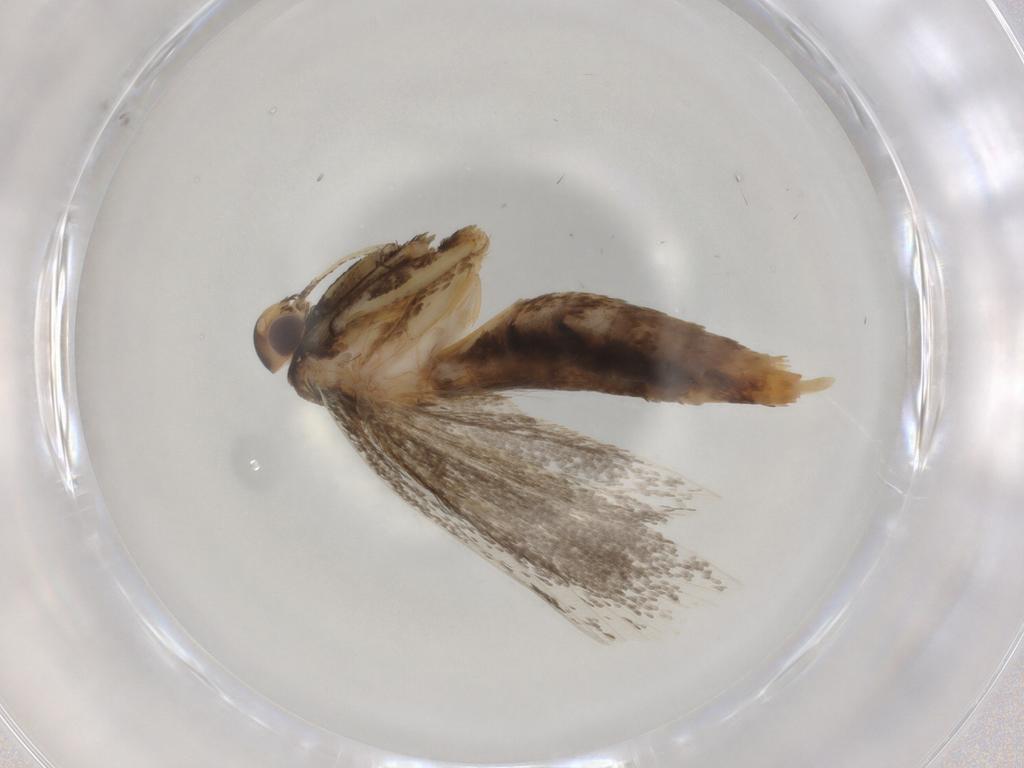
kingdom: Animalia
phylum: Arthropoda
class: Insecta
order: Lepidoptera
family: Lecithoceridae
